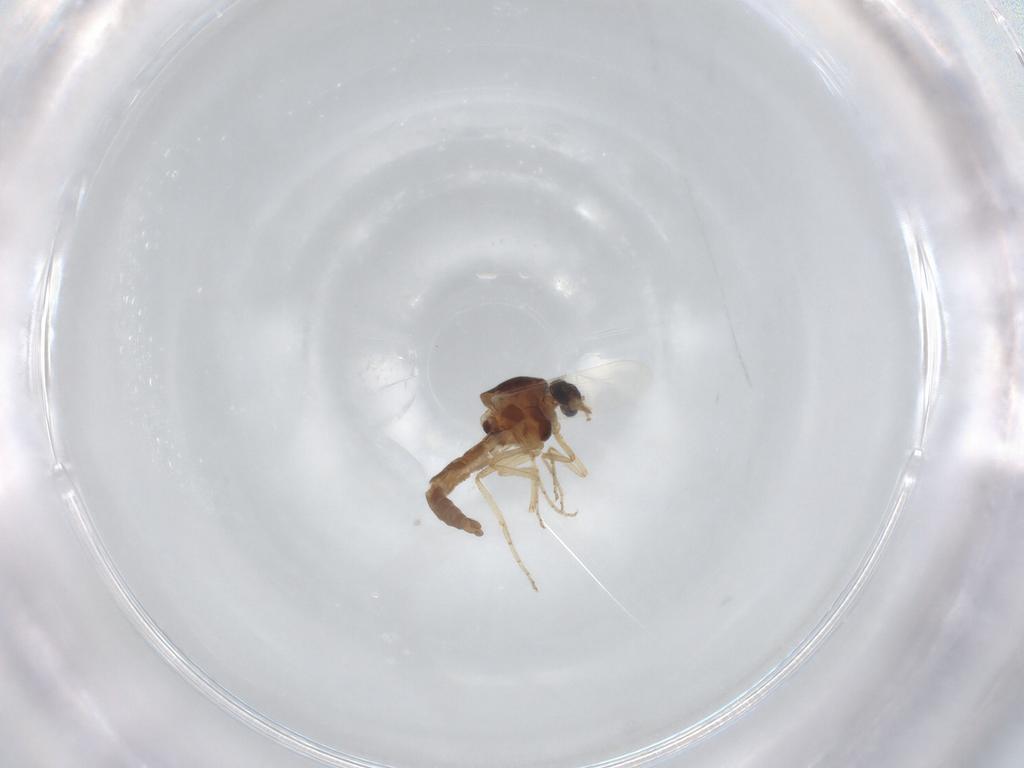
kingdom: Animalia
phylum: Arthropoda
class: Insecta
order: Diptera
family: Ceratopogonidae
